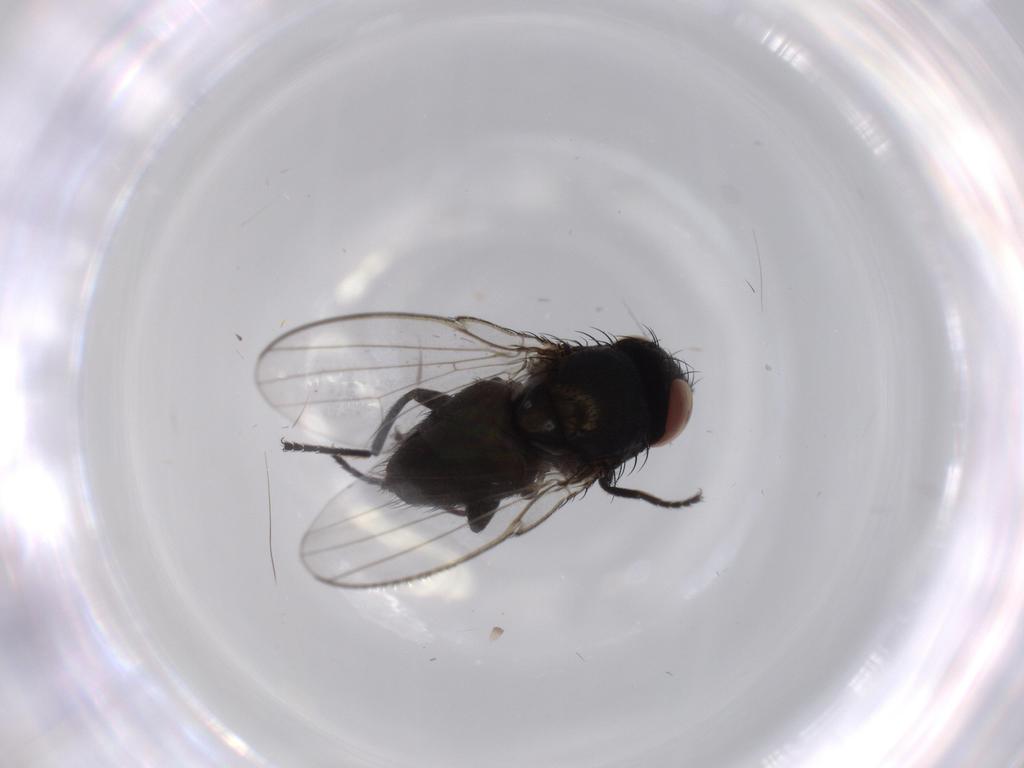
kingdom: Animalia
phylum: Arthropoda
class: Insecta
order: Diptera
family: Milichiidae
